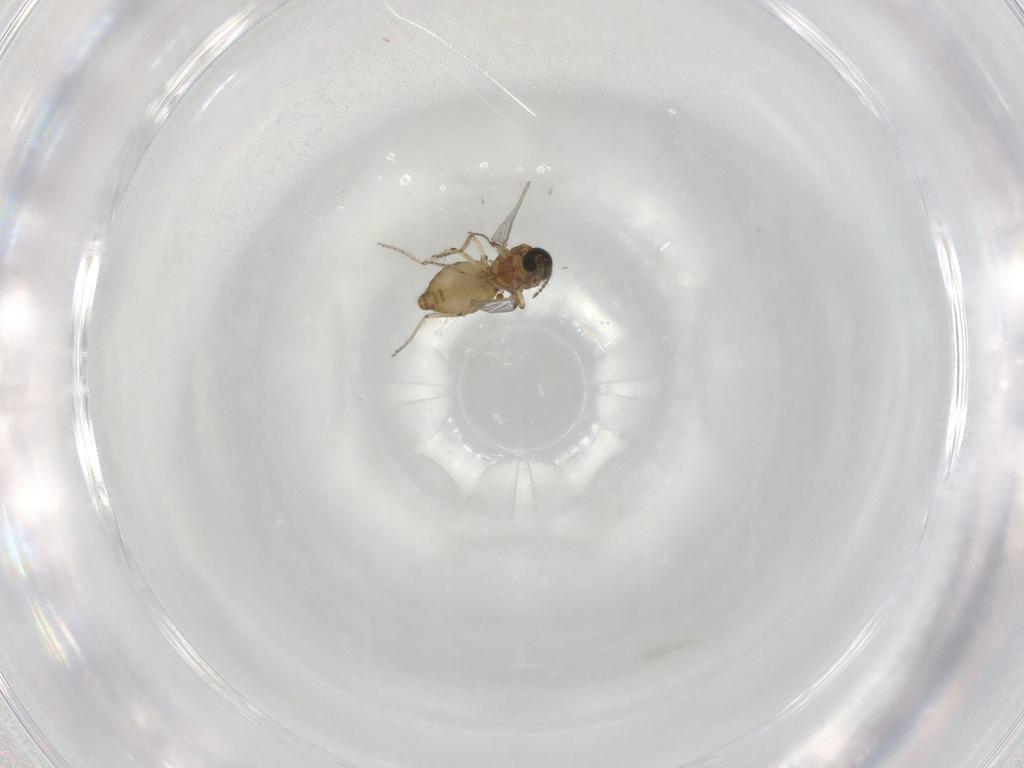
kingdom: Animalia
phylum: Arthropoda
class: Insecta
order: Diptera
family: Ceratopogonidae
